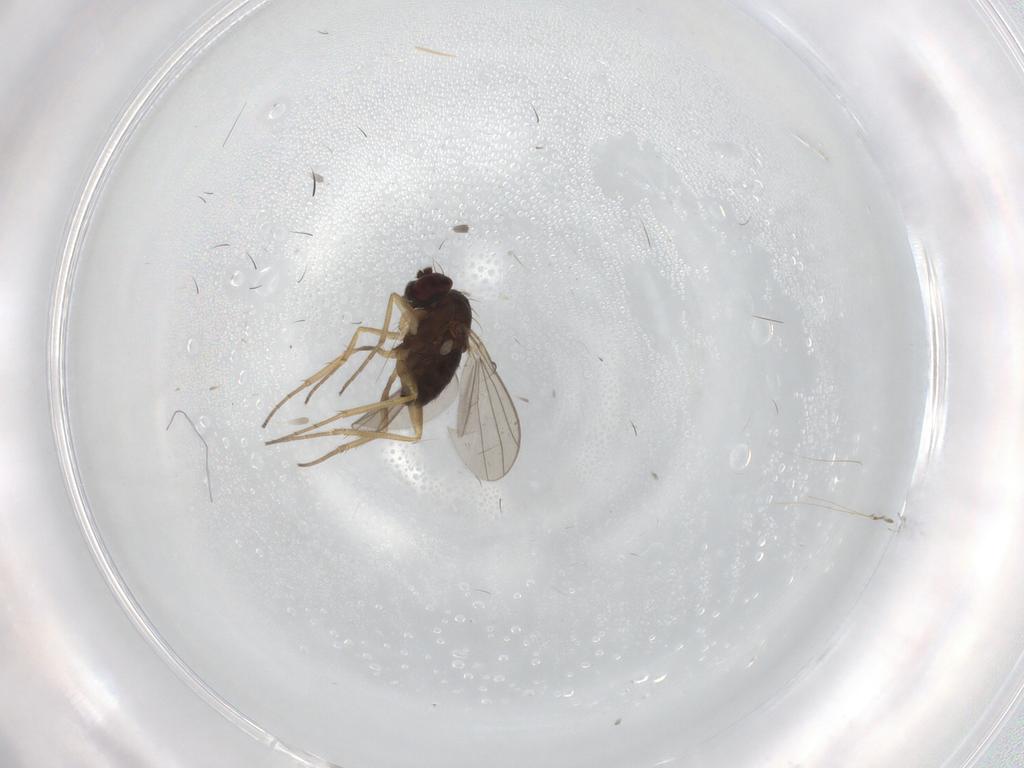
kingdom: Animalia
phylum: Arthropoda
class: Insecta
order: Diptera
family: Dolichopodidae
